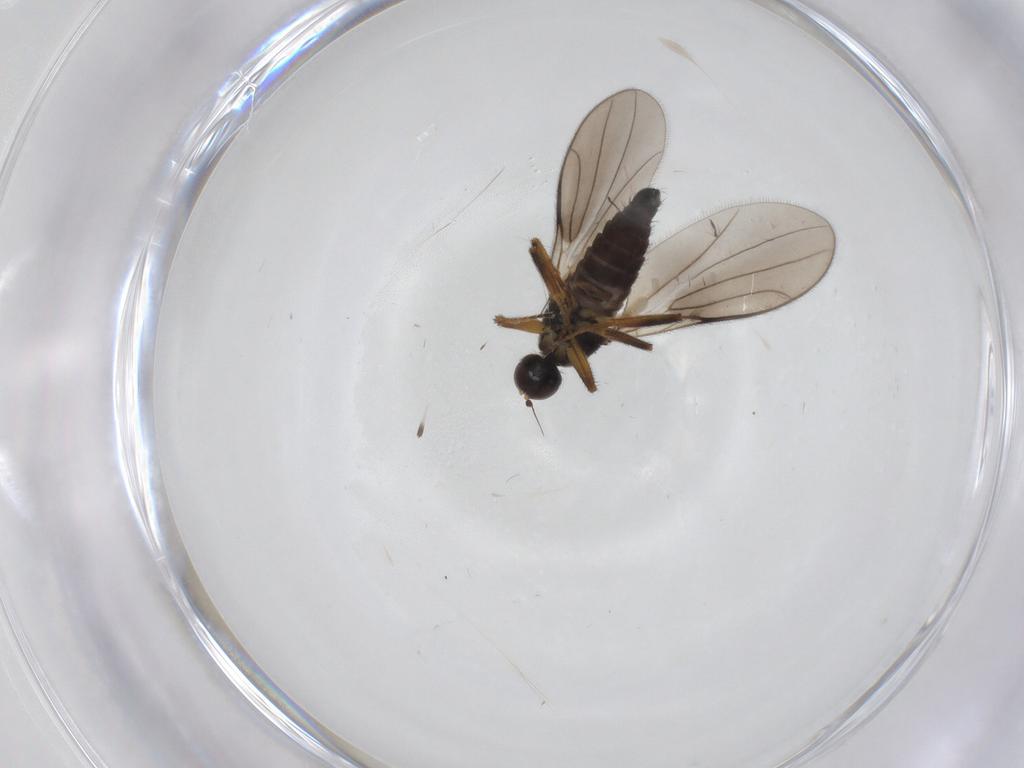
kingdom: Animalia
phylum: Arthropoda
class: Insecta
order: Diptera
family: Hybotidae
